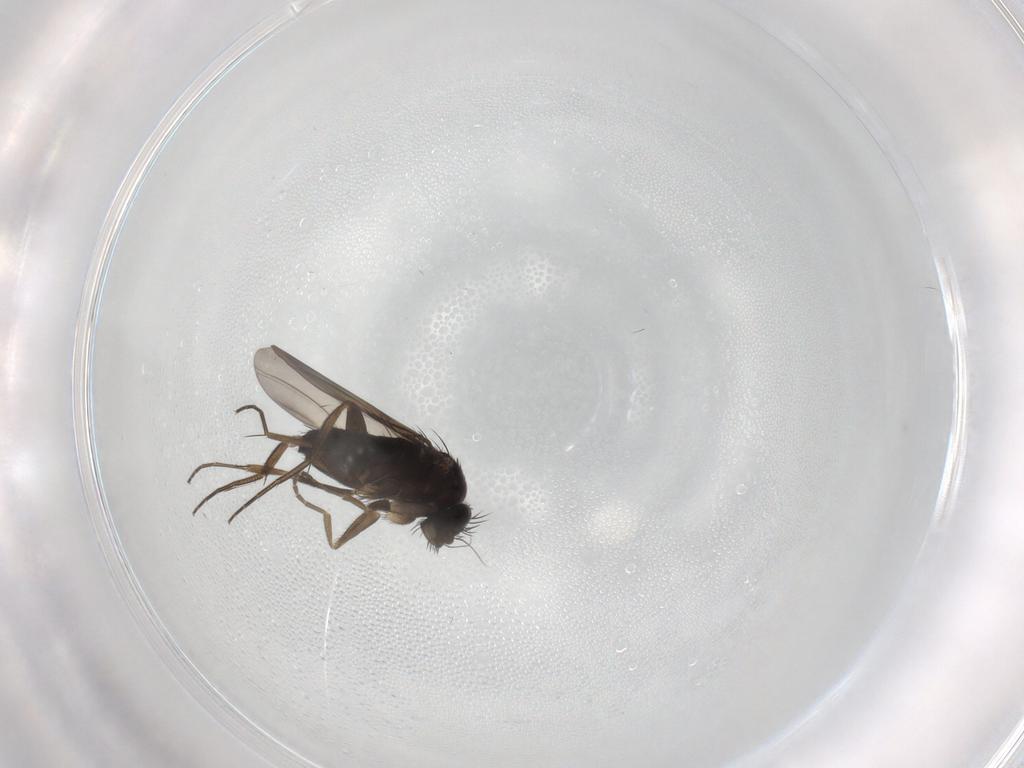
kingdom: Animalia
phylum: Arthropoda
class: Insecta
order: Diptera
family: Phoridae
